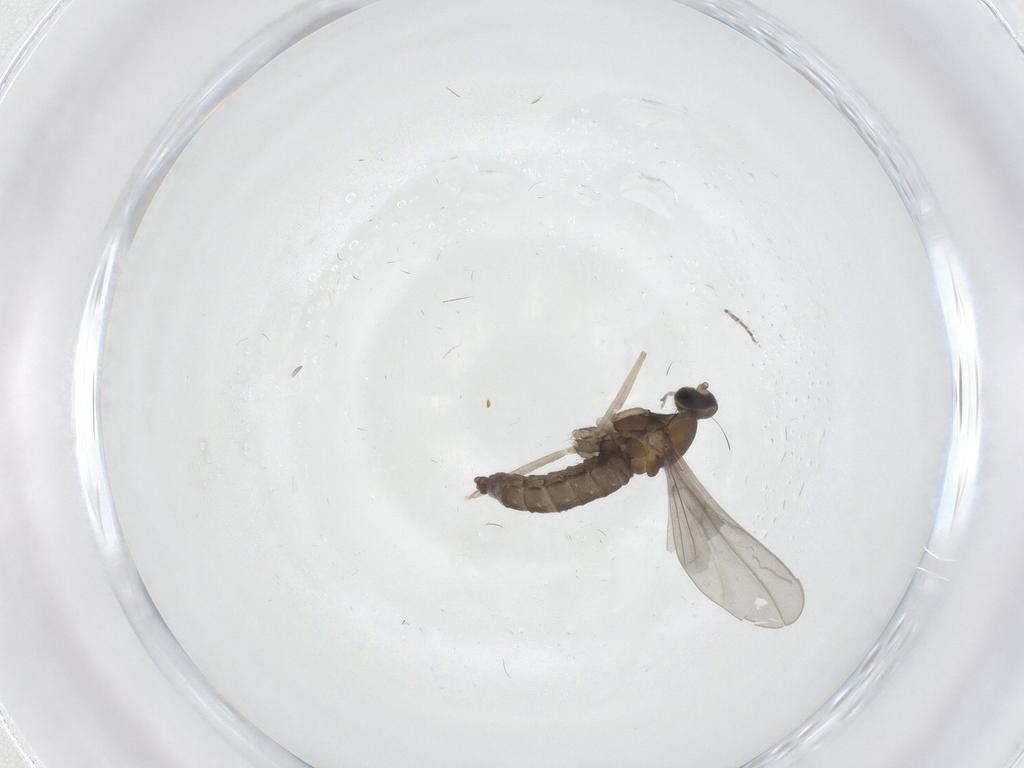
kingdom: Animalia
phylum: Arthropoda
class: Insecta
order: Diptera
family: Cecidomyiidae
